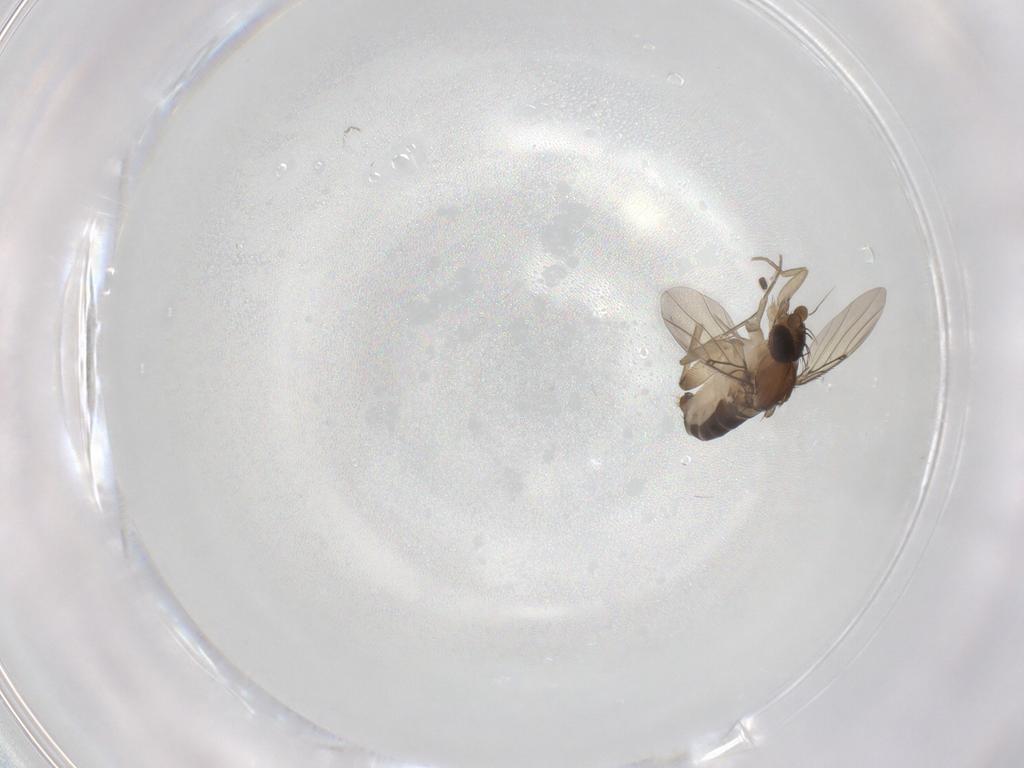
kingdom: Animalia
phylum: Arthropoda
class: Insecta
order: Diptera
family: Phoridae
